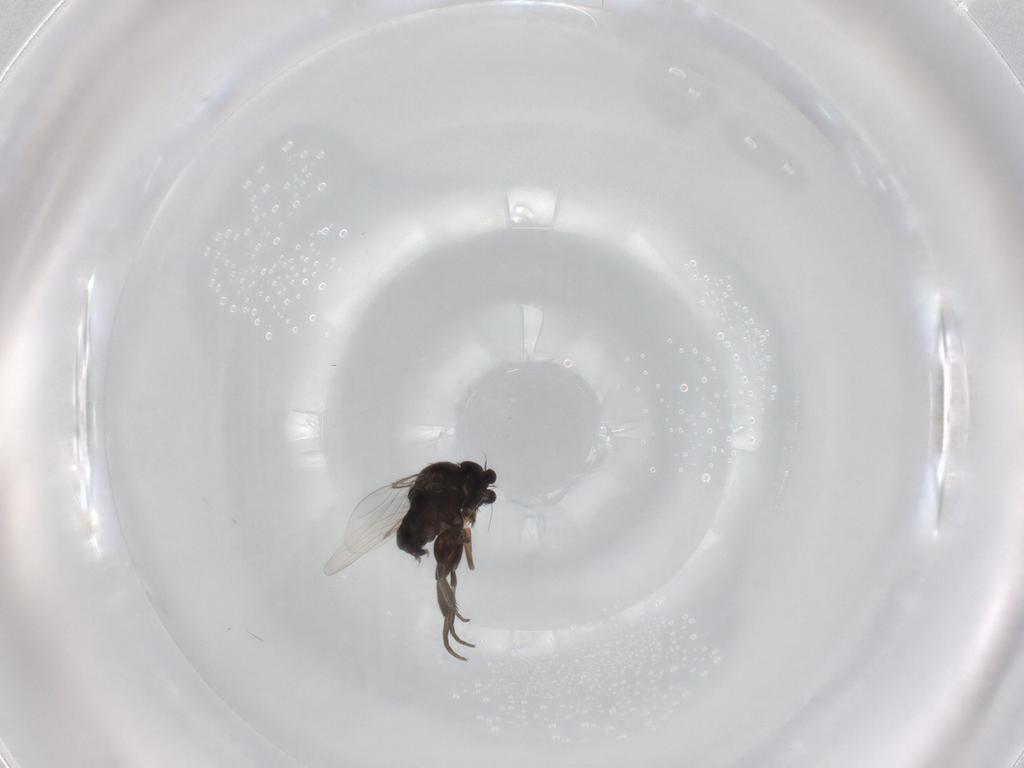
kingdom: Animalia
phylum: Arthropoda
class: Insecta
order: Diptera
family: Phoridae
